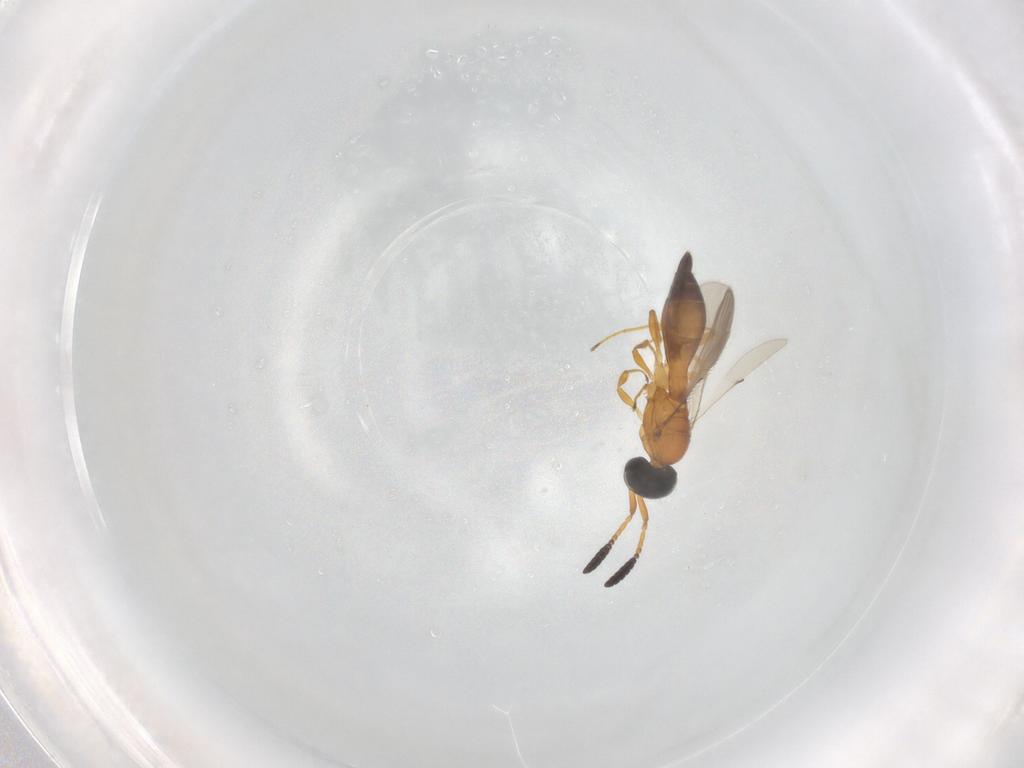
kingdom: Animalia
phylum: Arthropoda
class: Insecta
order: Hymenoptera
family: Scelionidae
